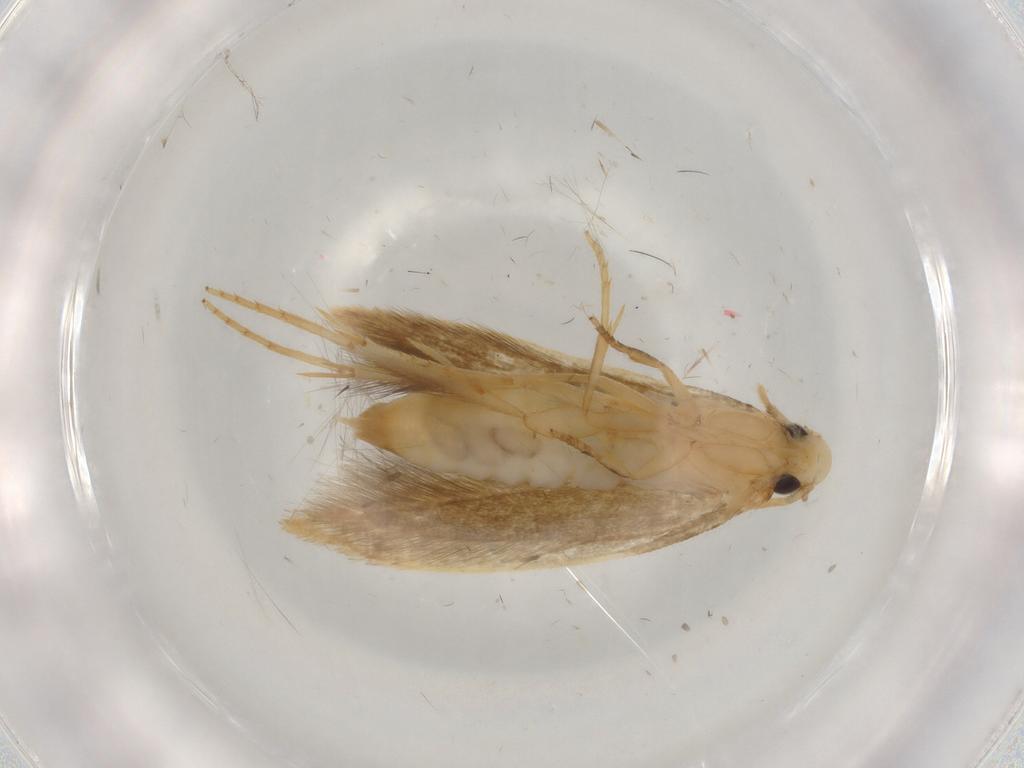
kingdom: Animalia
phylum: Arthropoda
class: Insecta
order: Lepidoptera
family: Tineidae
